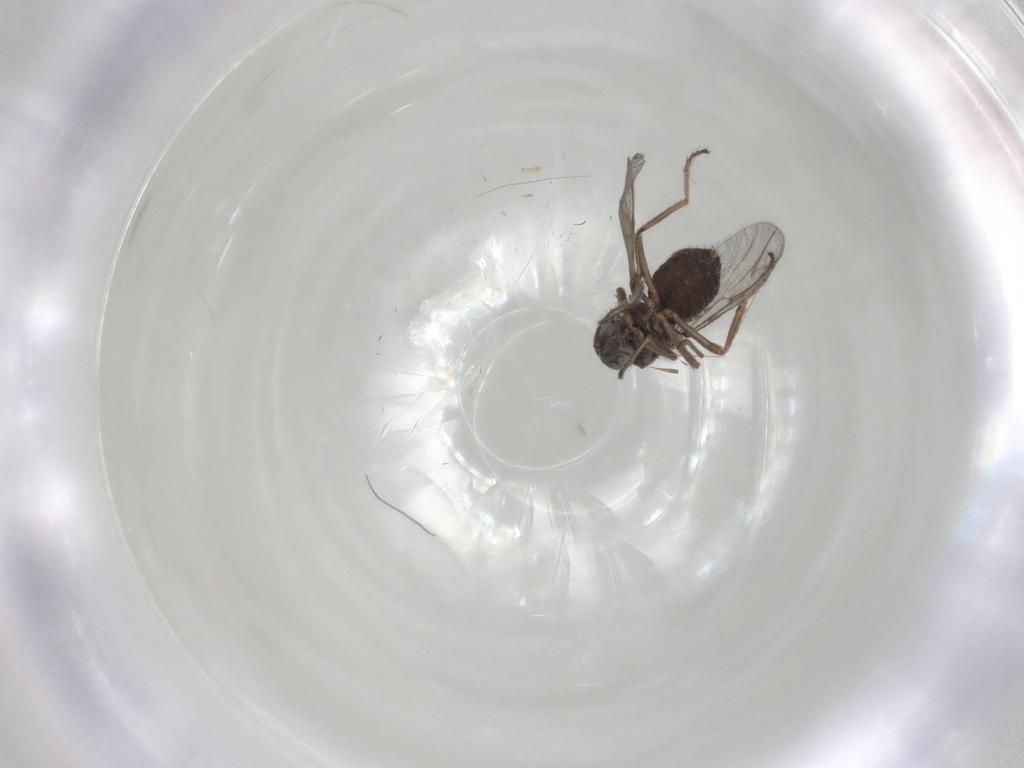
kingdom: Animalia
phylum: Arthropoda
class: Insecta
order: Diptera
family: Ceratopogonidae
